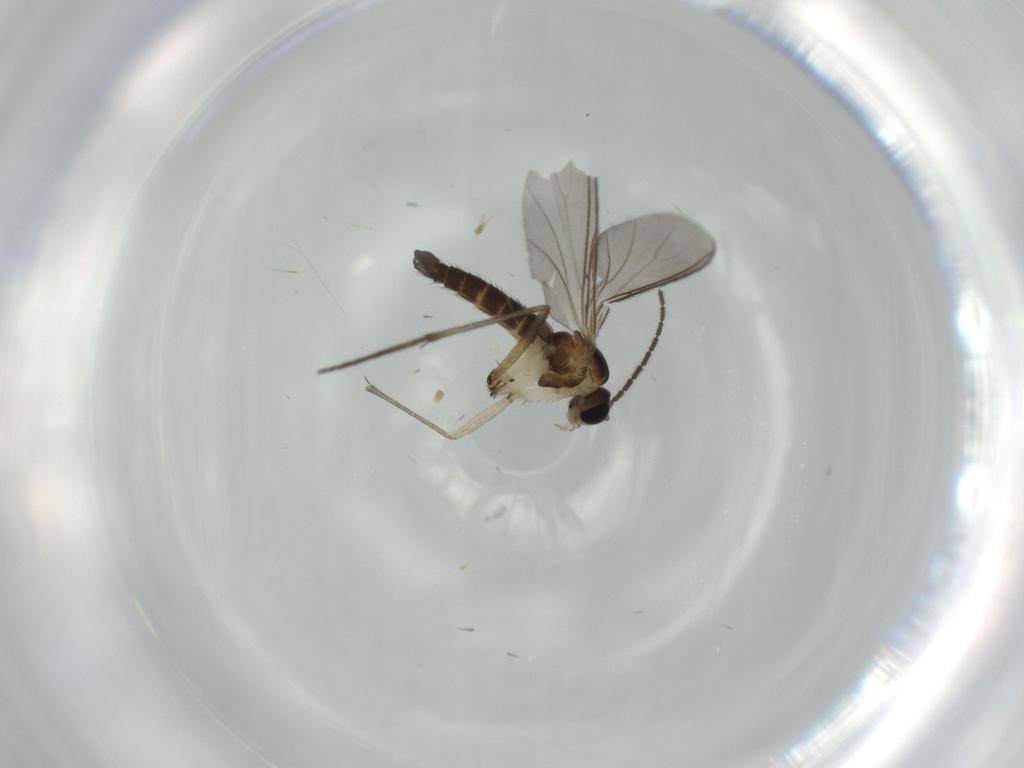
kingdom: Animalia
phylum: Arthropoda
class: Insecta
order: Diptera
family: Sciaridae
